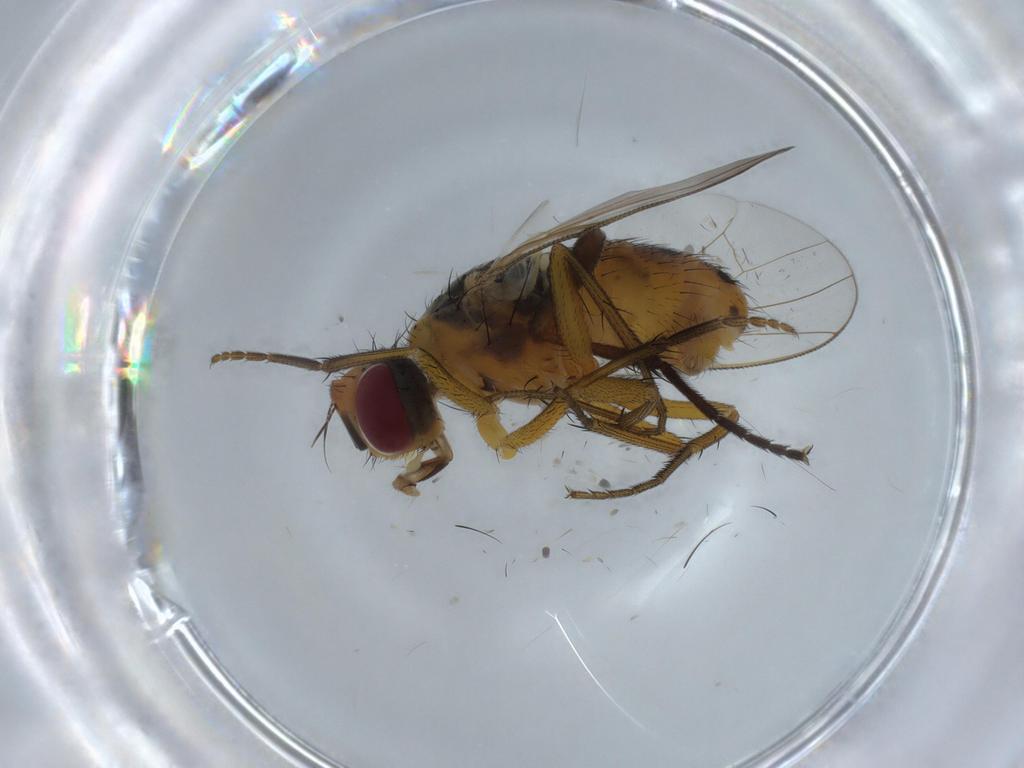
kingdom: Animalia
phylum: Arthropoda
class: Insecta
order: Diptera
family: Muscidae
